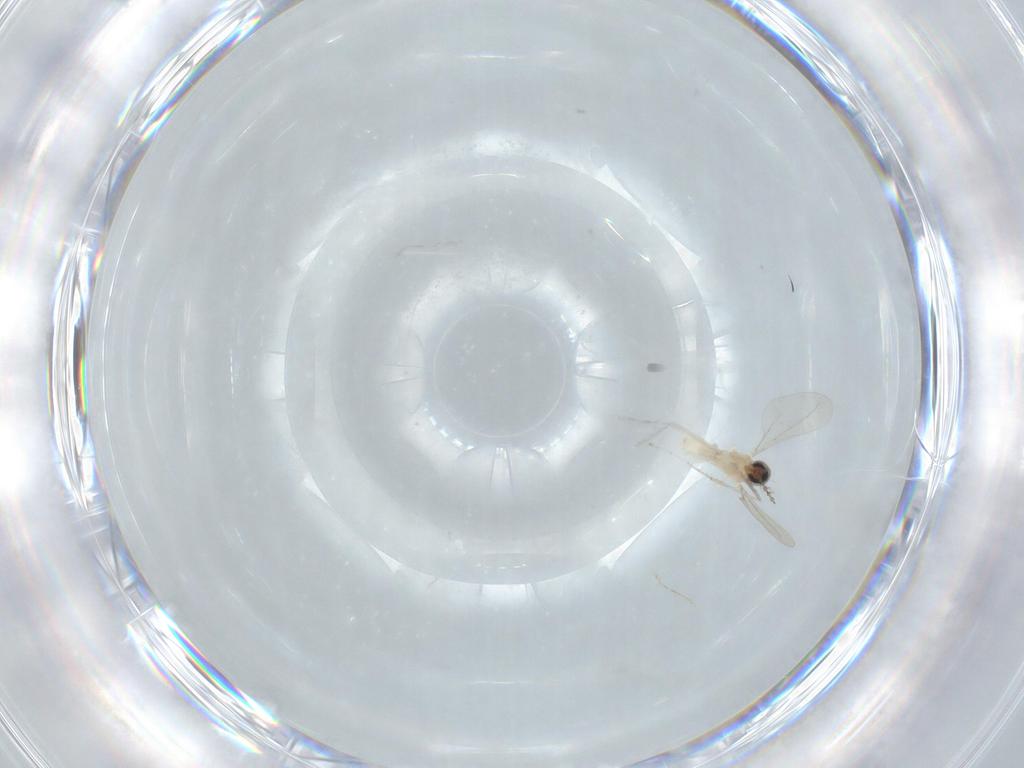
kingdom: Animalia
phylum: Arthropoda
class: Insecta
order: Diptera
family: Cecidomyiidae
